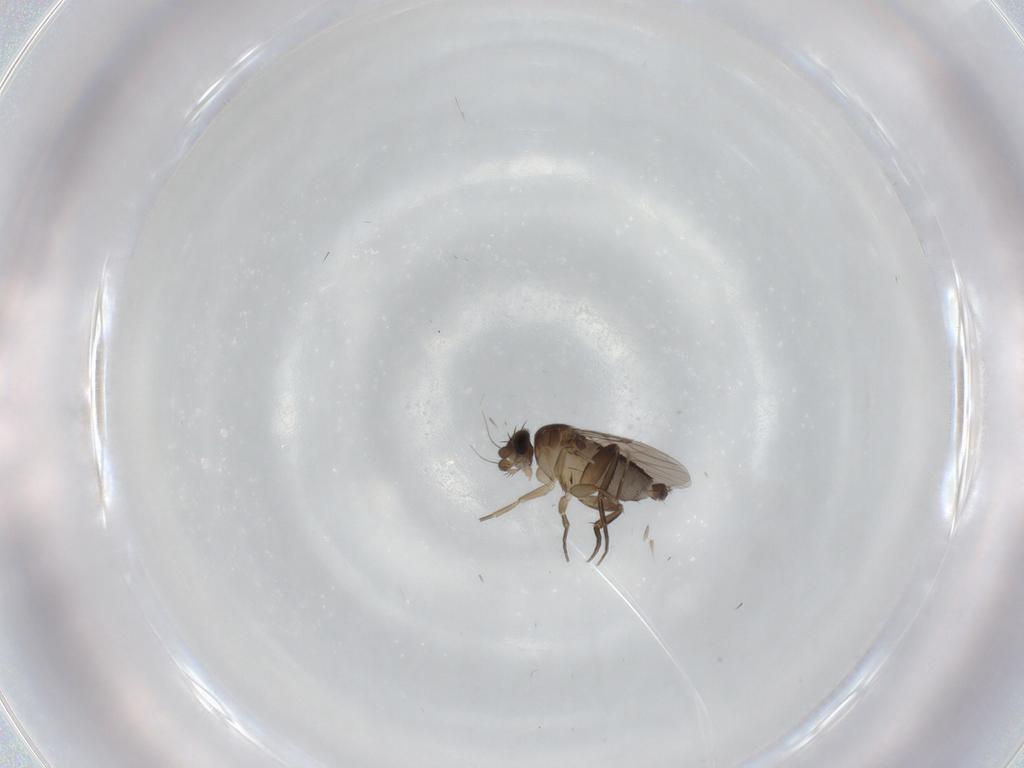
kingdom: Animalia
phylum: Arthropoda
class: Insecta
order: Diptera
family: Phoridae
